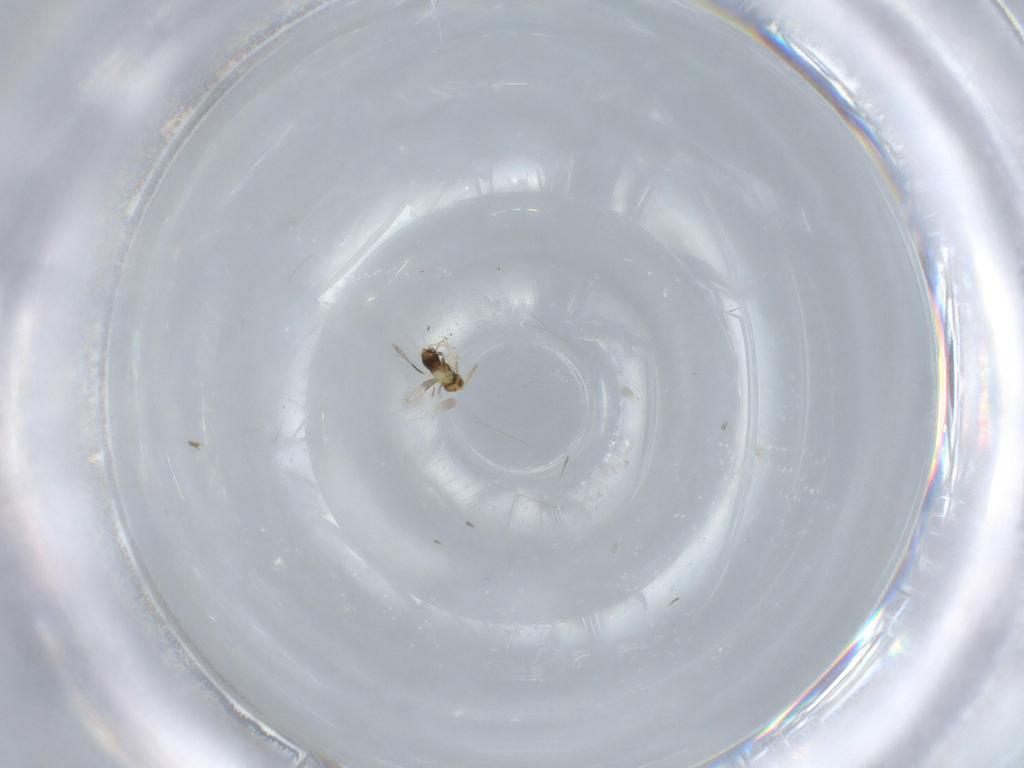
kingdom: Animalia
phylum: Arthropoda
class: Insecta
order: Hymenoptera
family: Aphelinidae
